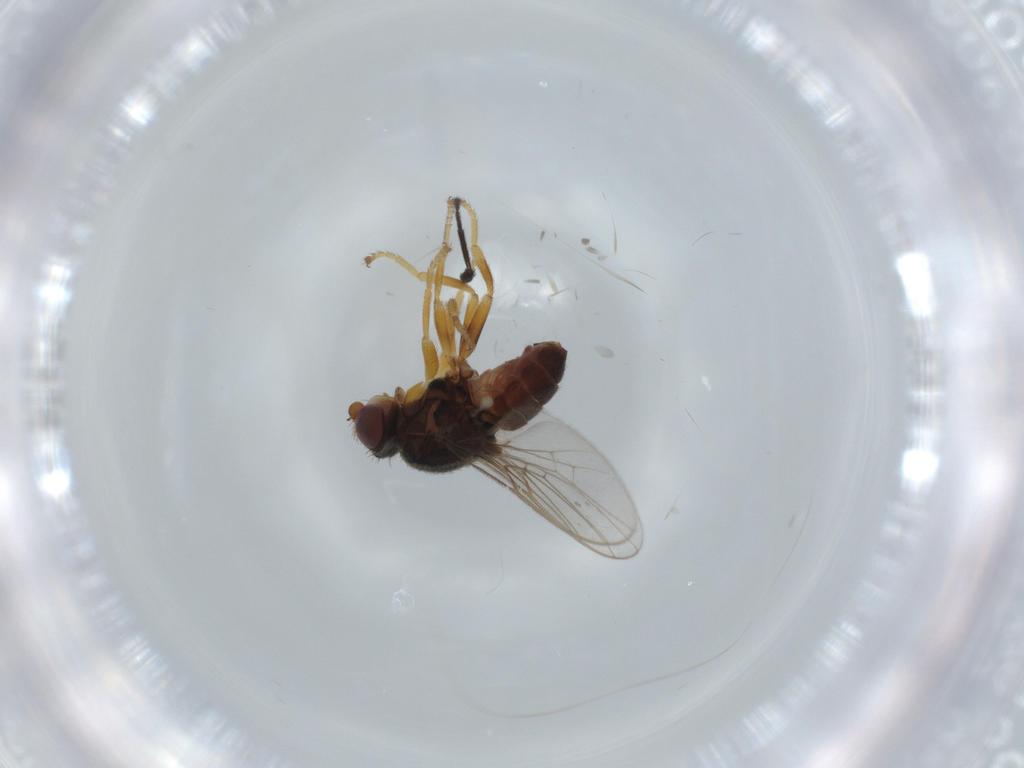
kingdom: Animalia
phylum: Arthropoda
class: Insecta
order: Diptera
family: Chloropidae
